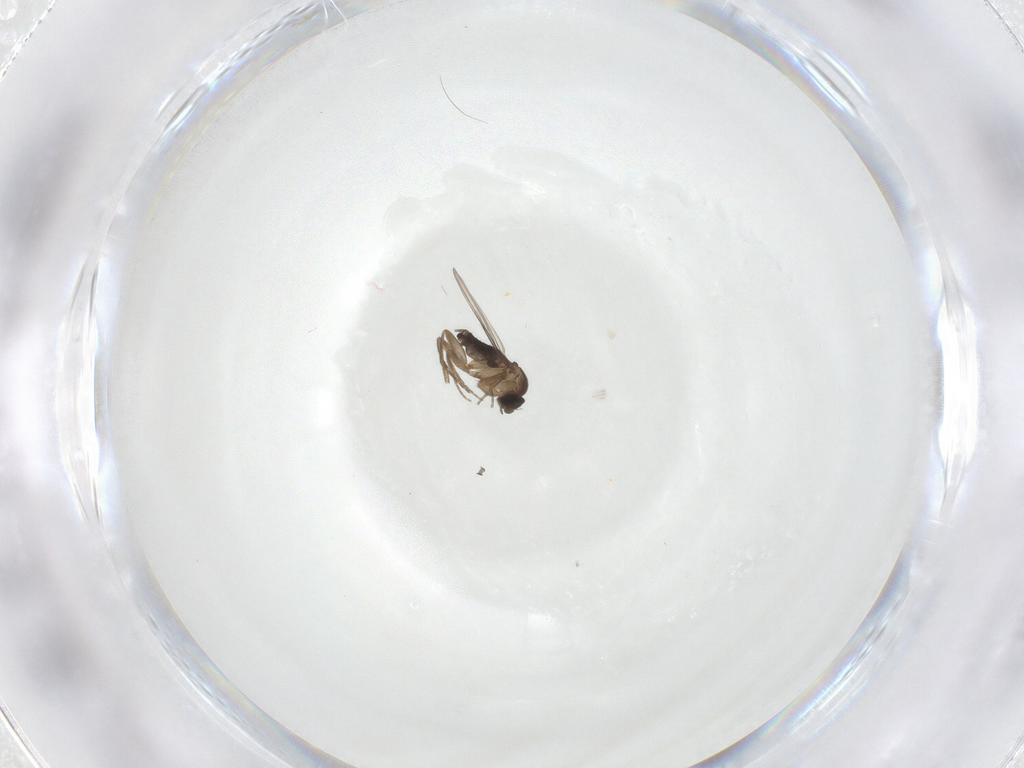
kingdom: Animalia
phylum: Arthropoda
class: Insecta
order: Diptera
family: Phoridae
